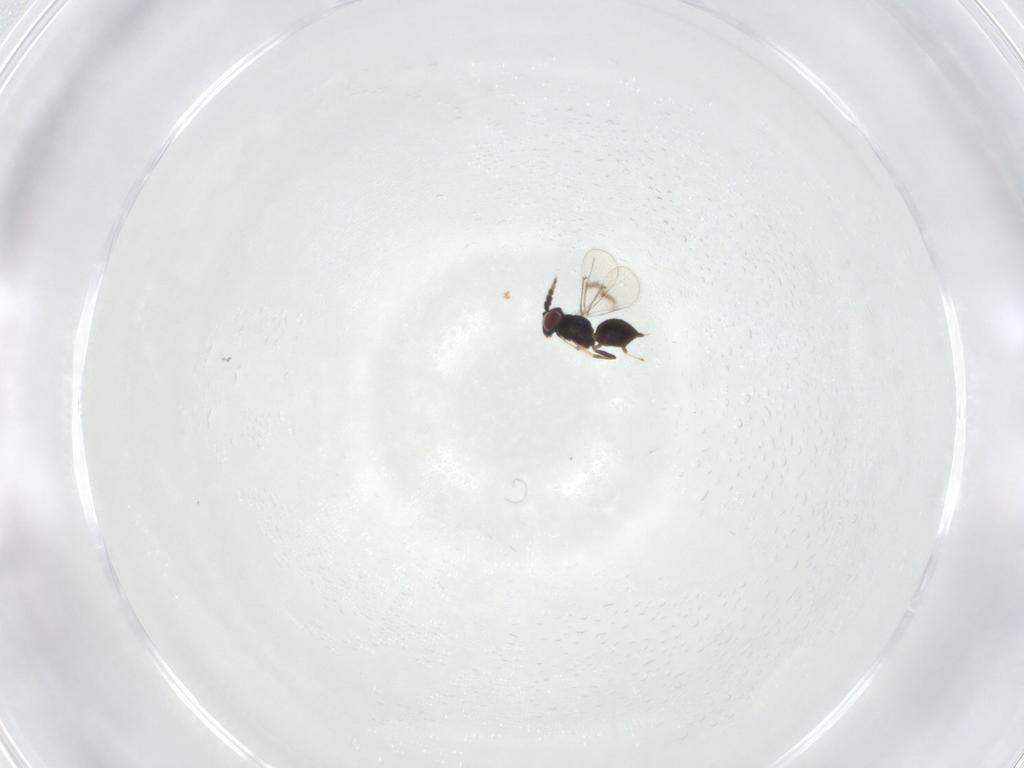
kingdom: Animalia
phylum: Arthropoda
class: Insecta
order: Hymenoptera
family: Eulophidae
